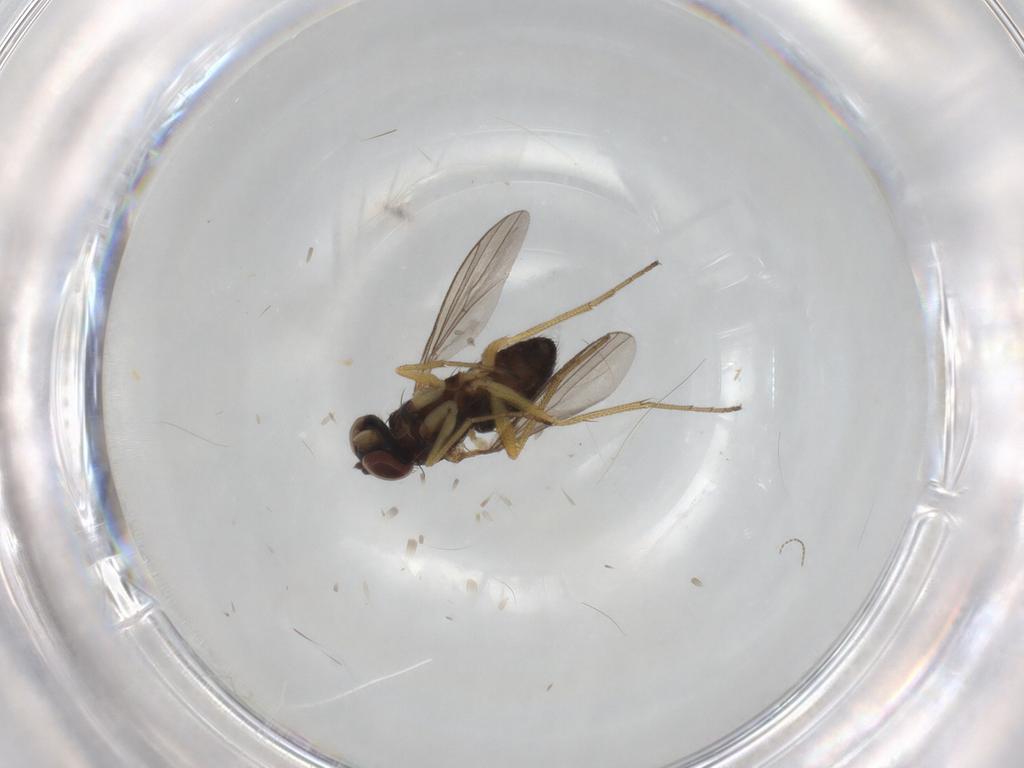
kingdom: Animalia
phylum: Arthropoda
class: Insecta
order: Diptera
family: Dolichopodidae
